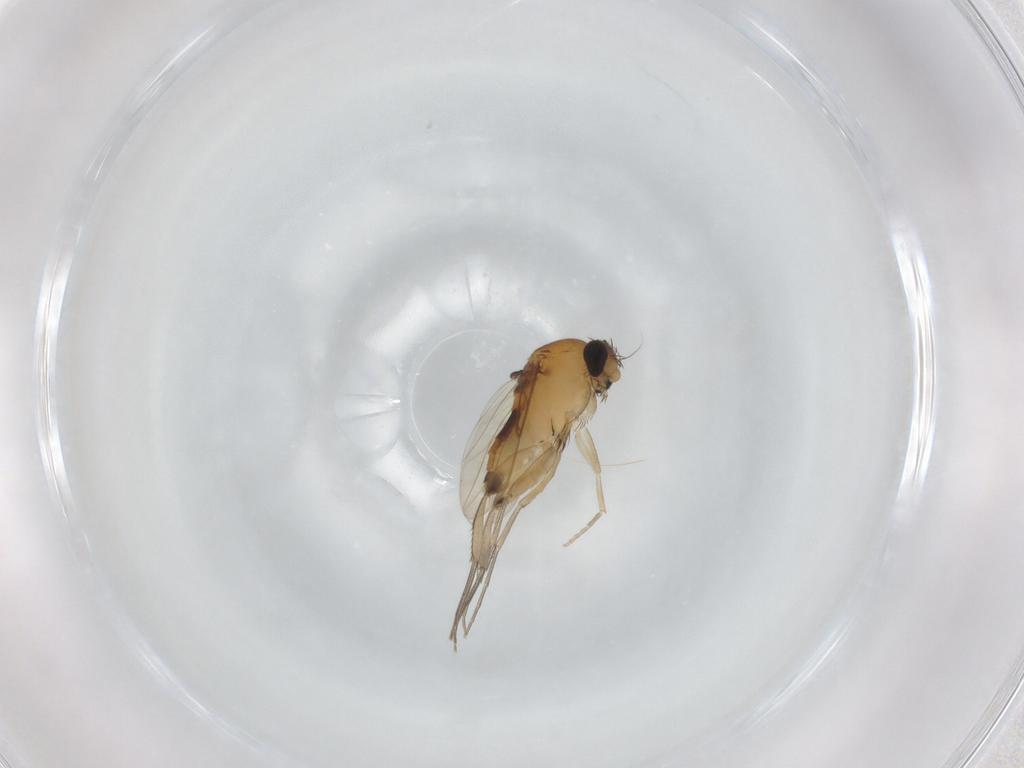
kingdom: Animalia
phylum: Arthropoda
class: Insecta
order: Diptera
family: Phoridae
